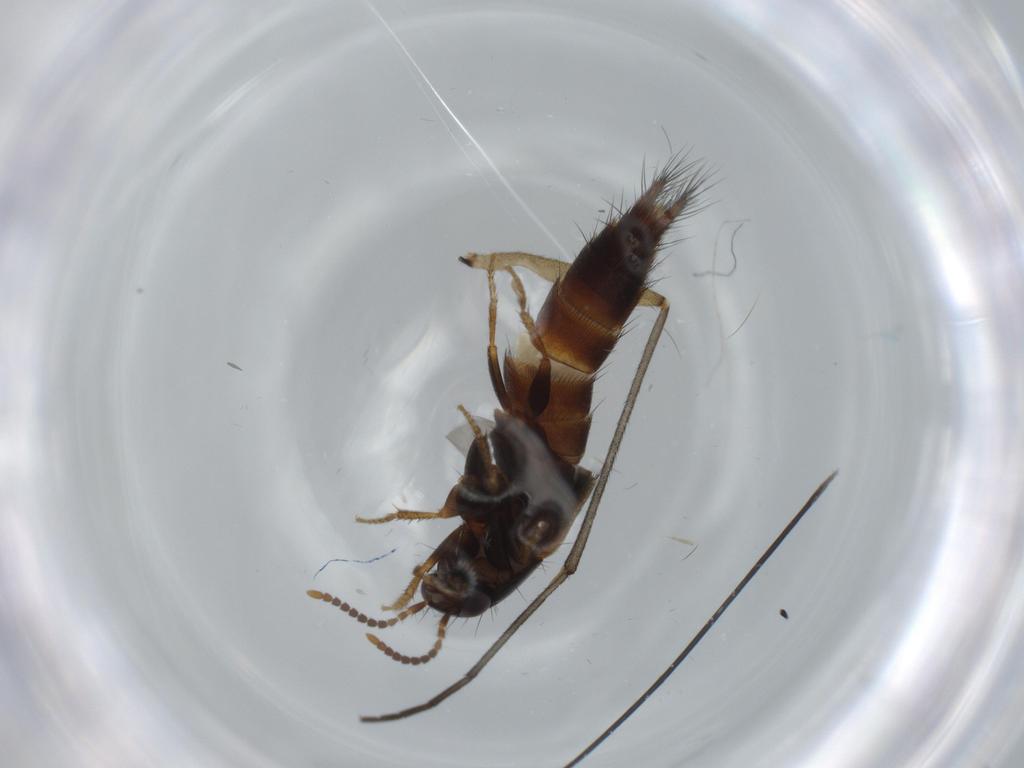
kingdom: Animalia
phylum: Arthropoda
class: Insecta
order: Coleoptera
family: Staphylinidae
